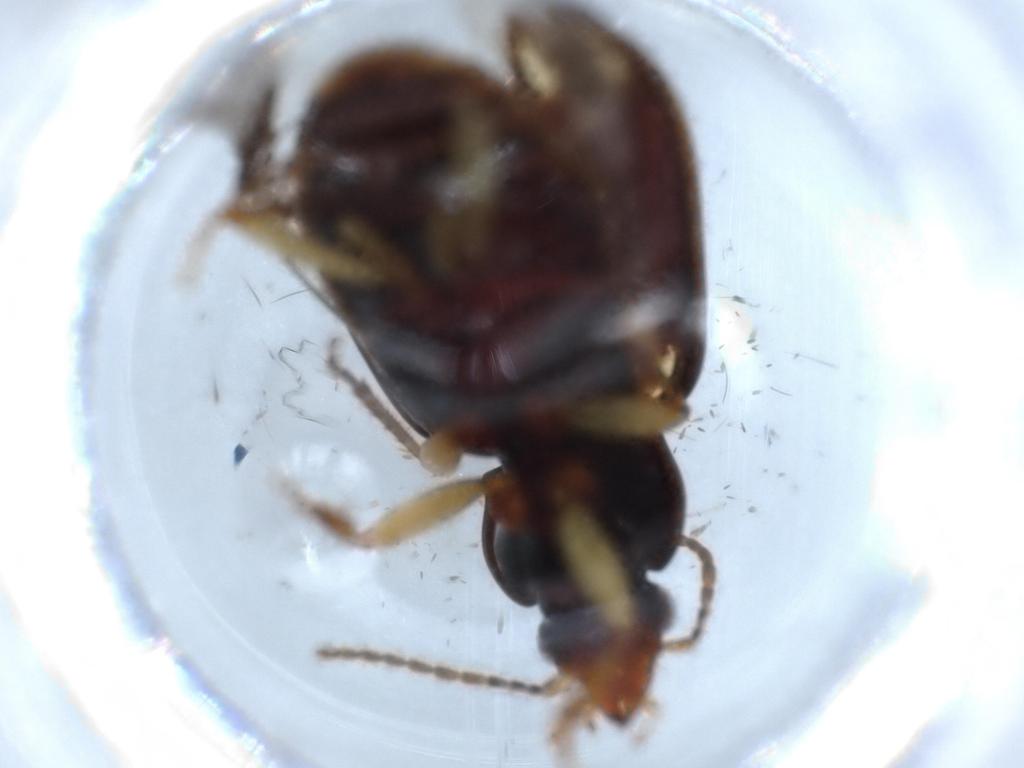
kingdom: Animalia
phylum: Arthropoda
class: Insecta
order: Coleoptera
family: Carabidae
